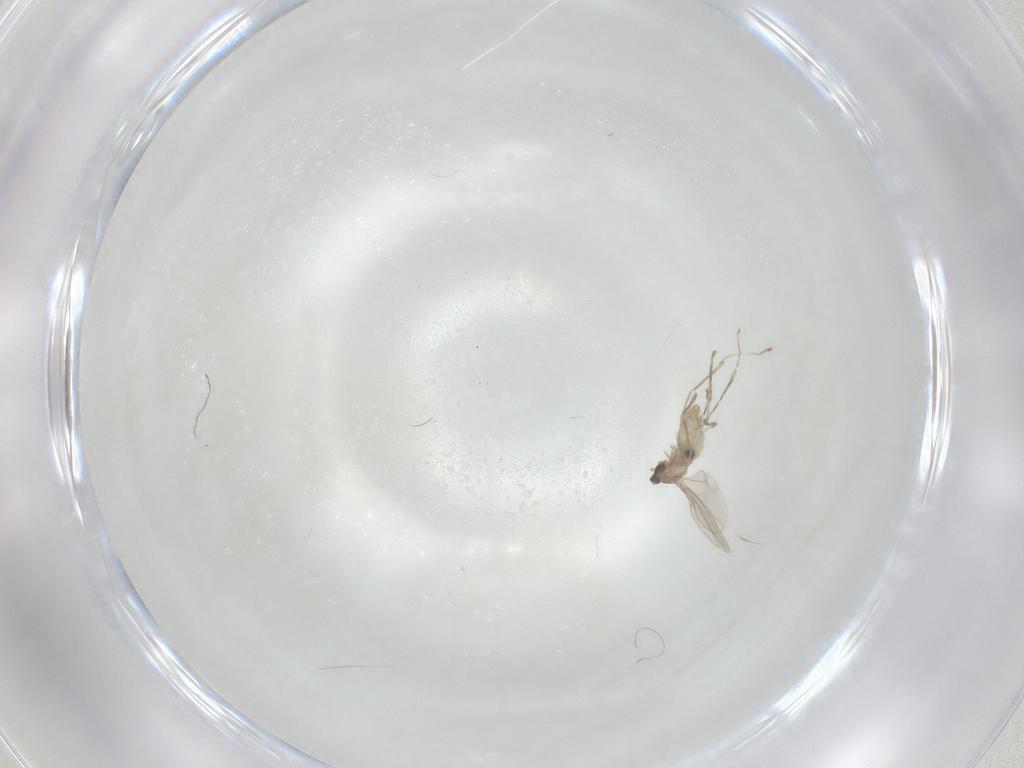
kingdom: Animalia
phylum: Arthropoda
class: Insecta
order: Diptera
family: Cecidomyiidae
